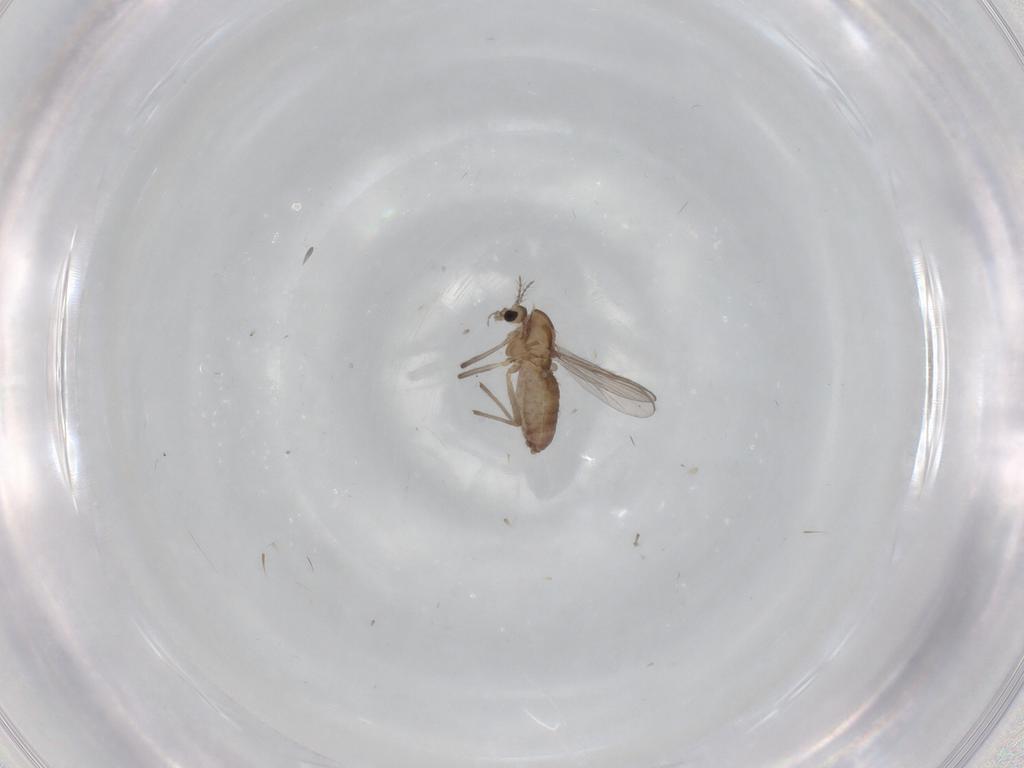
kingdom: Animalia
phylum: Arthropoda
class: Insecta
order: Diptera
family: Chironomidae
